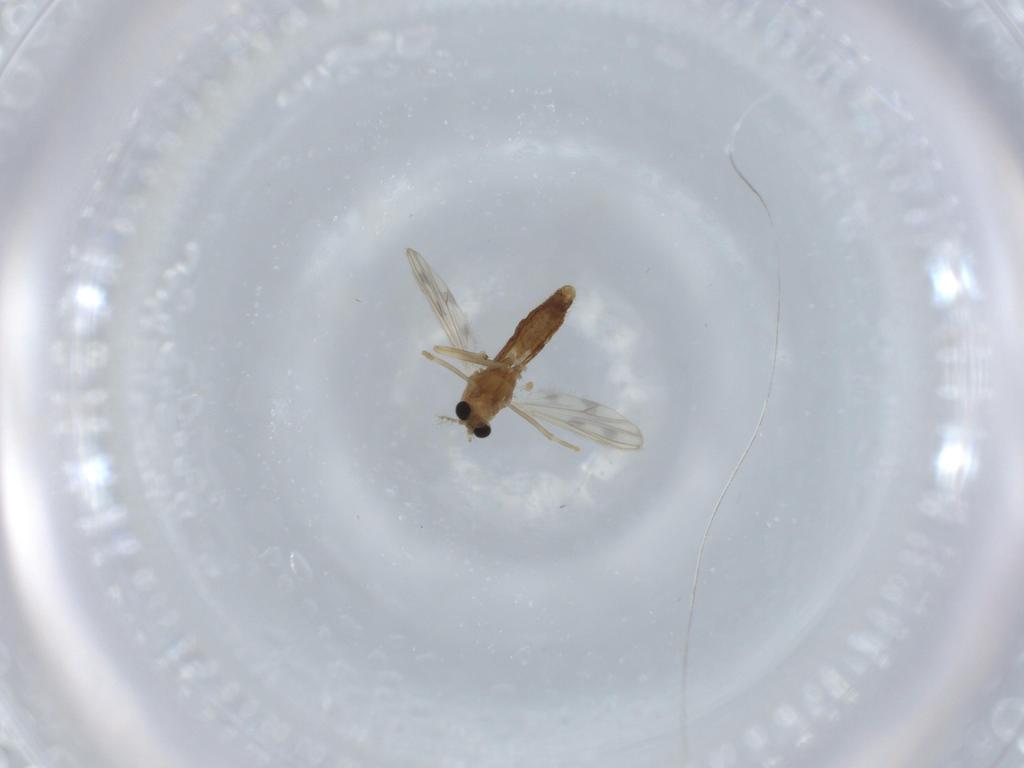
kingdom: Animalia
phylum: Arthropoda
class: Insecta
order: Diptera
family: Chironomidae
